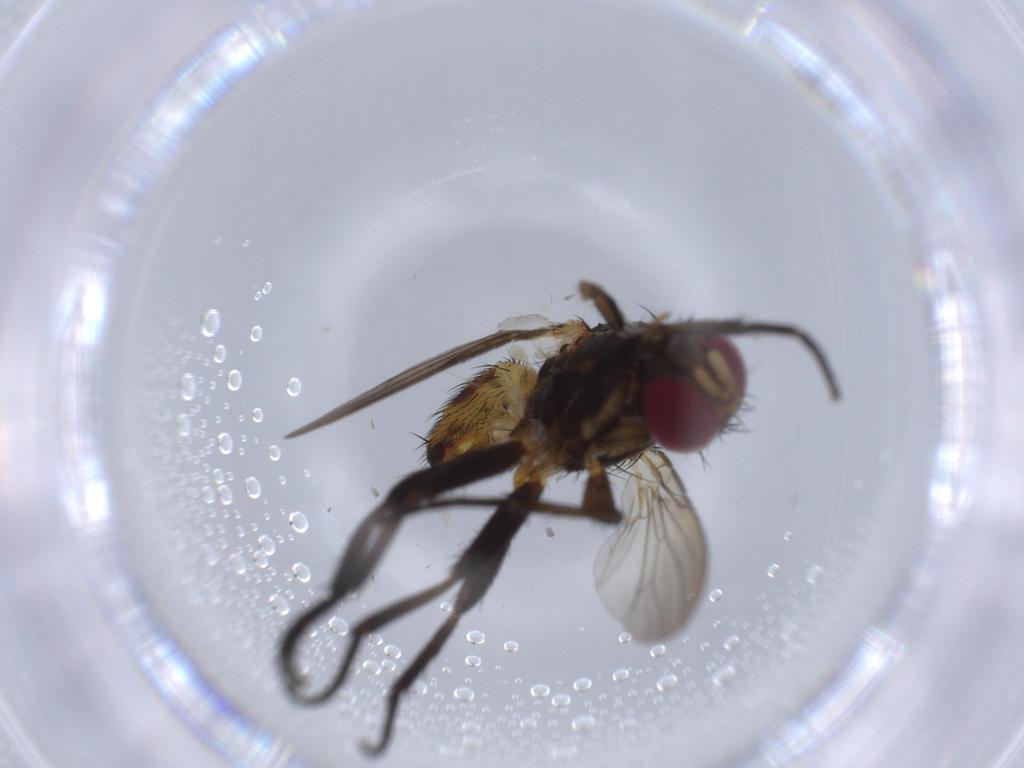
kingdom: Animalia
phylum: Arthropoda
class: Insecta
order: Diptera
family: Anthomyiidae
